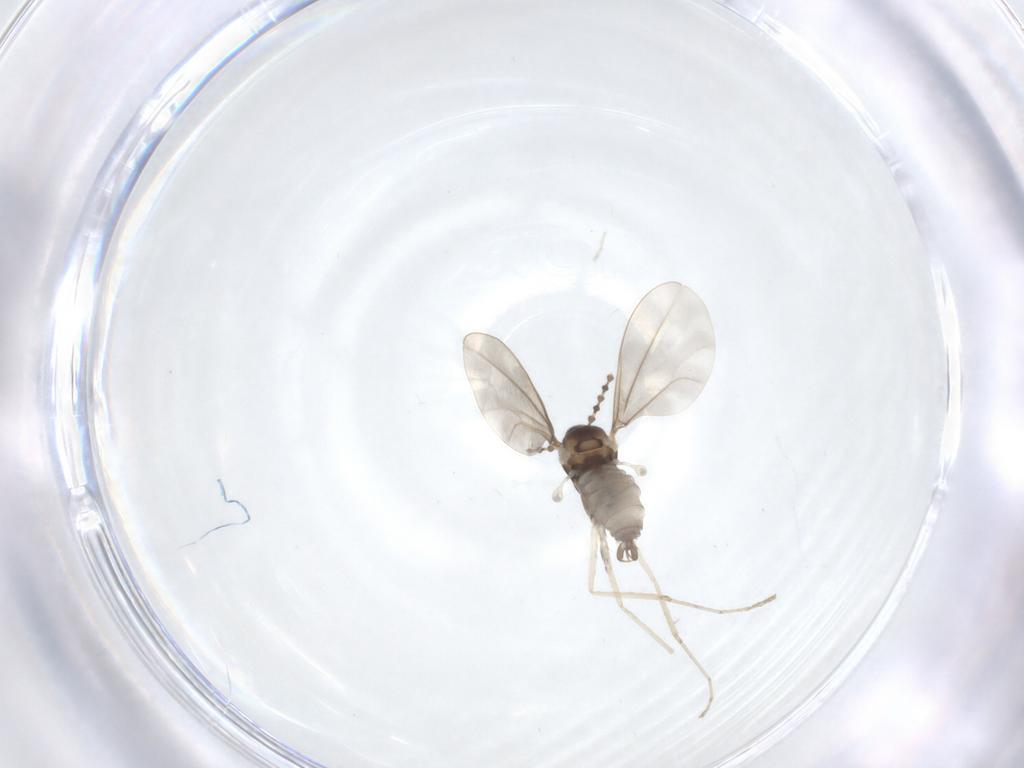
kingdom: Animalia
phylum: Arthropoda
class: Insecta
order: Diptera
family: Cecidomyiidae
